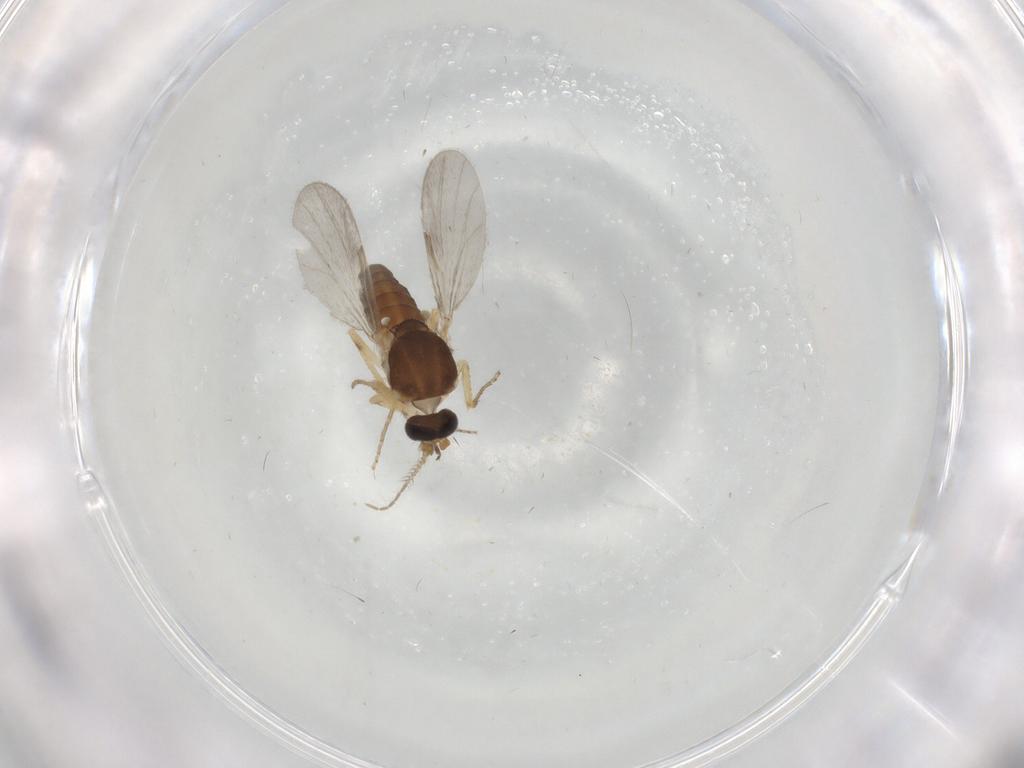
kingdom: Animalia
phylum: Arthropoda
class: Insecta
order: Diptera
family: Ceratopogonidae
